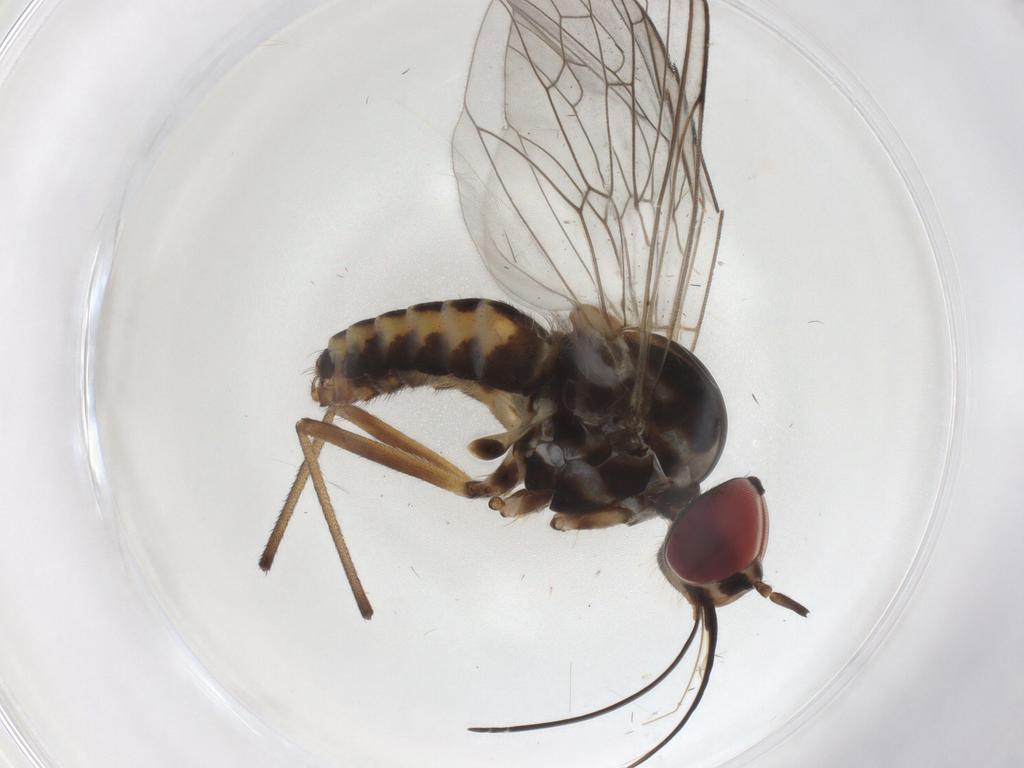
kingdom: Animalia
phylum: Arthropoda
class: Insecta
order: Diptera
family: Bombyliidae
